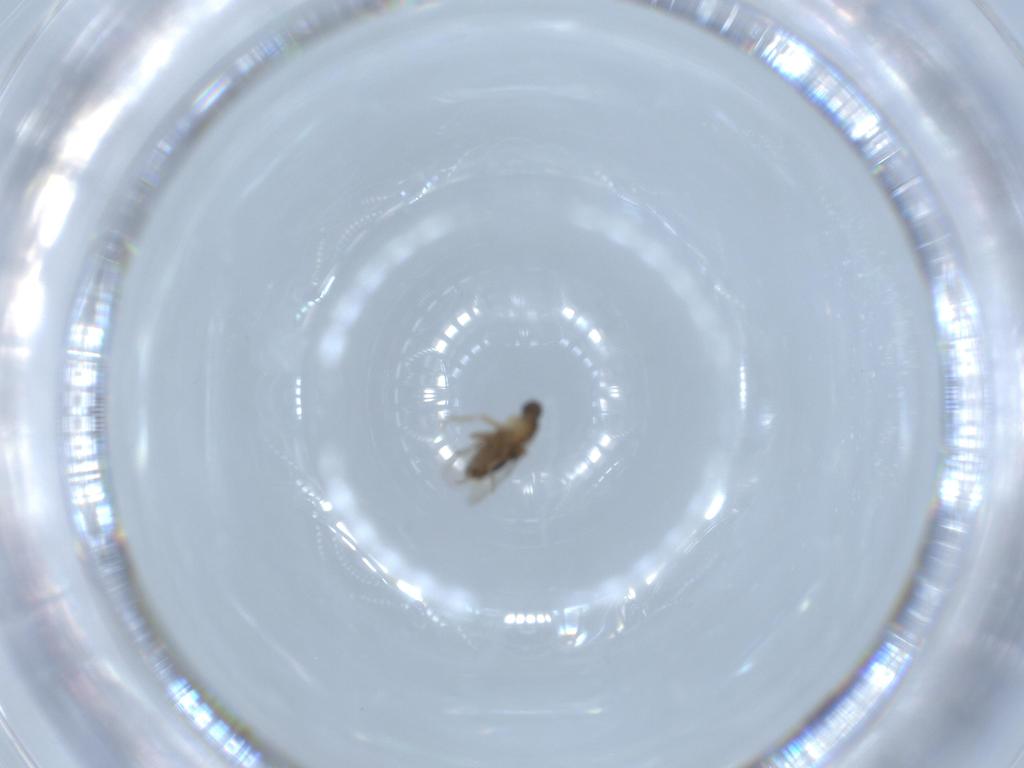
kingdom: Animalia
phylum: Arthropoda
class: Insecta
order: Diptera
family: Phoridae
